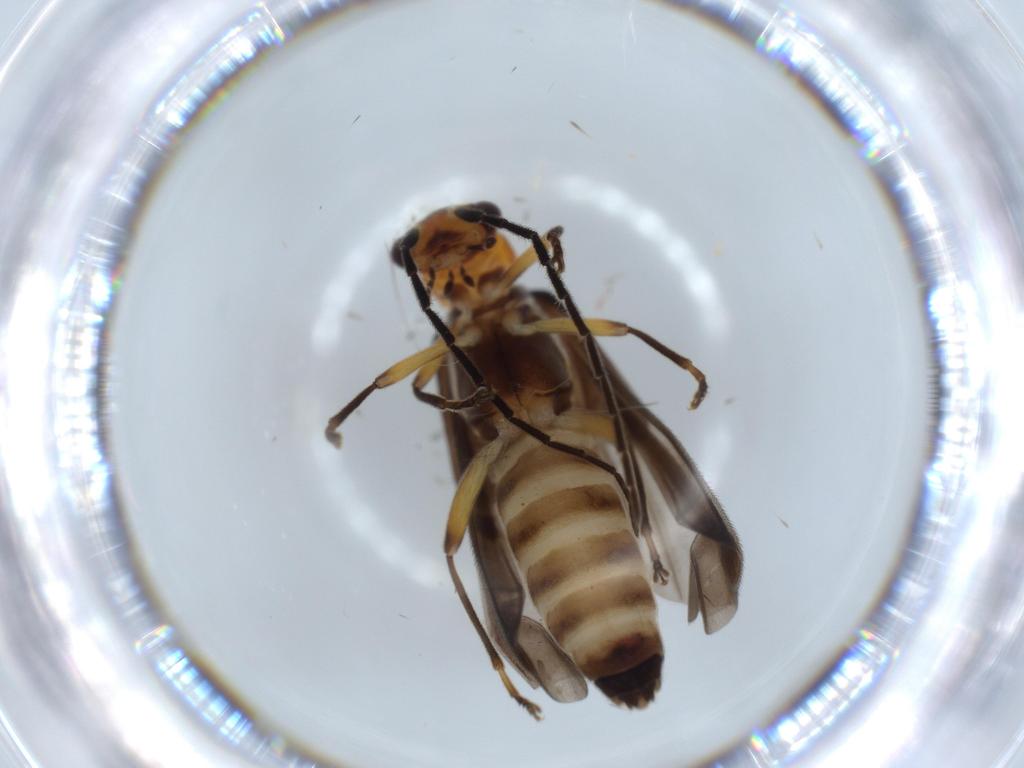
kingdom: Animalia
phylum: Arthropoda
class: Insecta
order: Coleoptera
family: Cantharidae
